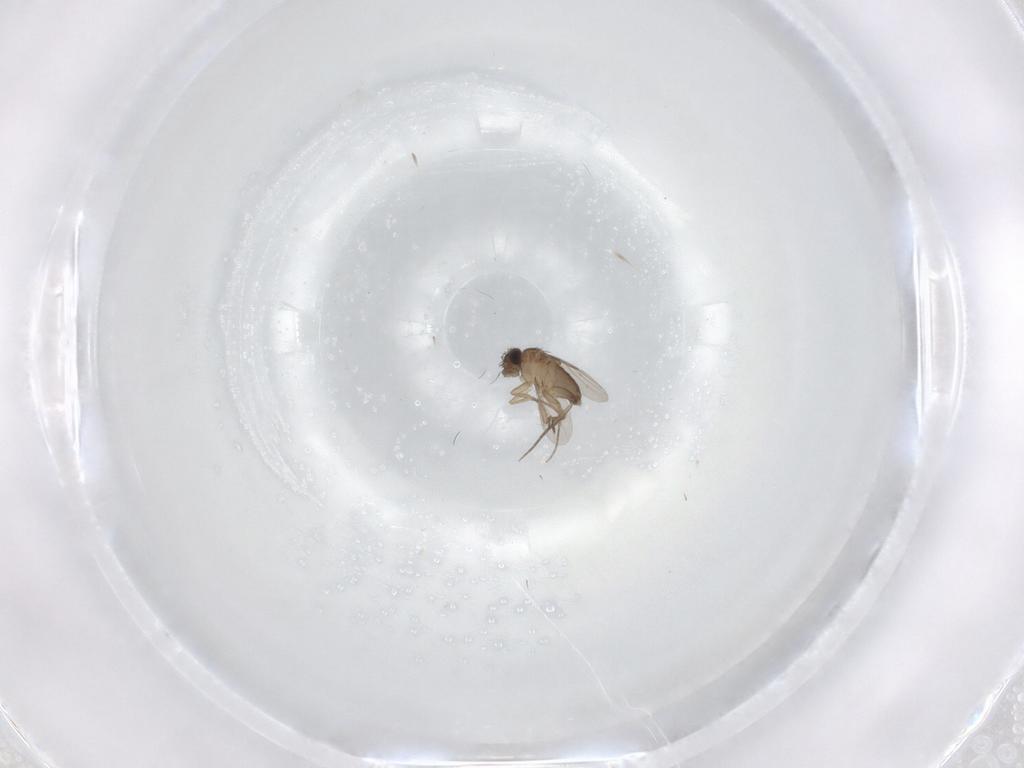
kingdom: Animalia
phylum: Arthropoda
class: Insecta
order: Diptera
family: Phoridae
